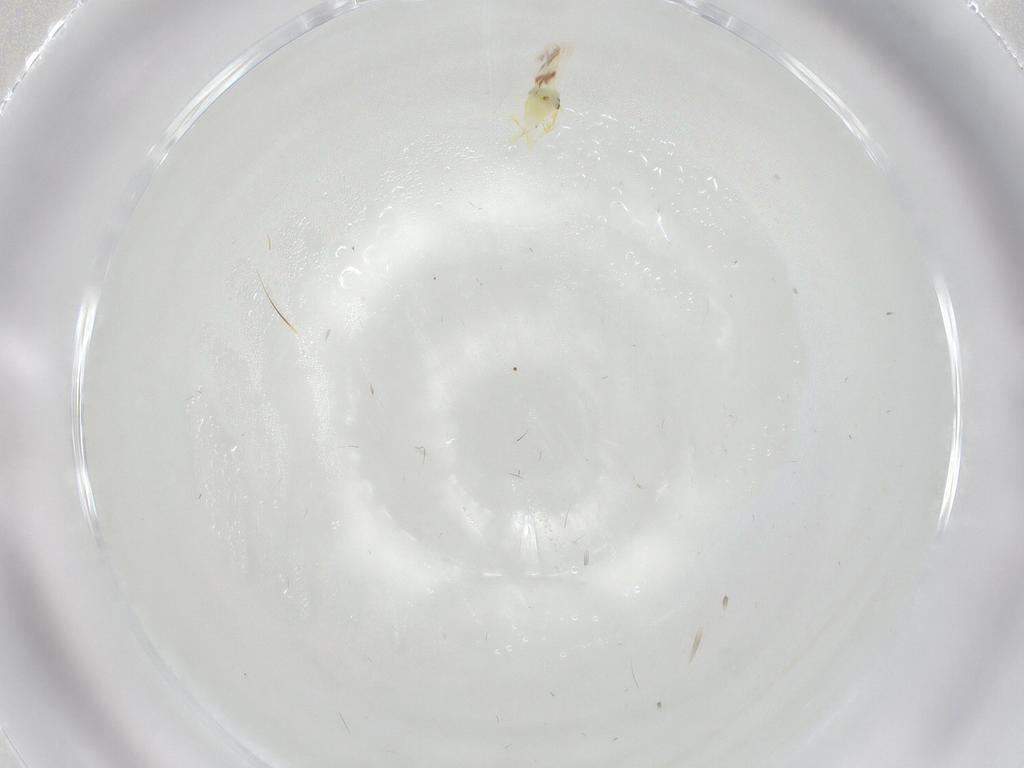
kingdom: Animalia
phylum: Arthropoda
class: Insecta
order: Hemiptera
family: Aleyrodidae
